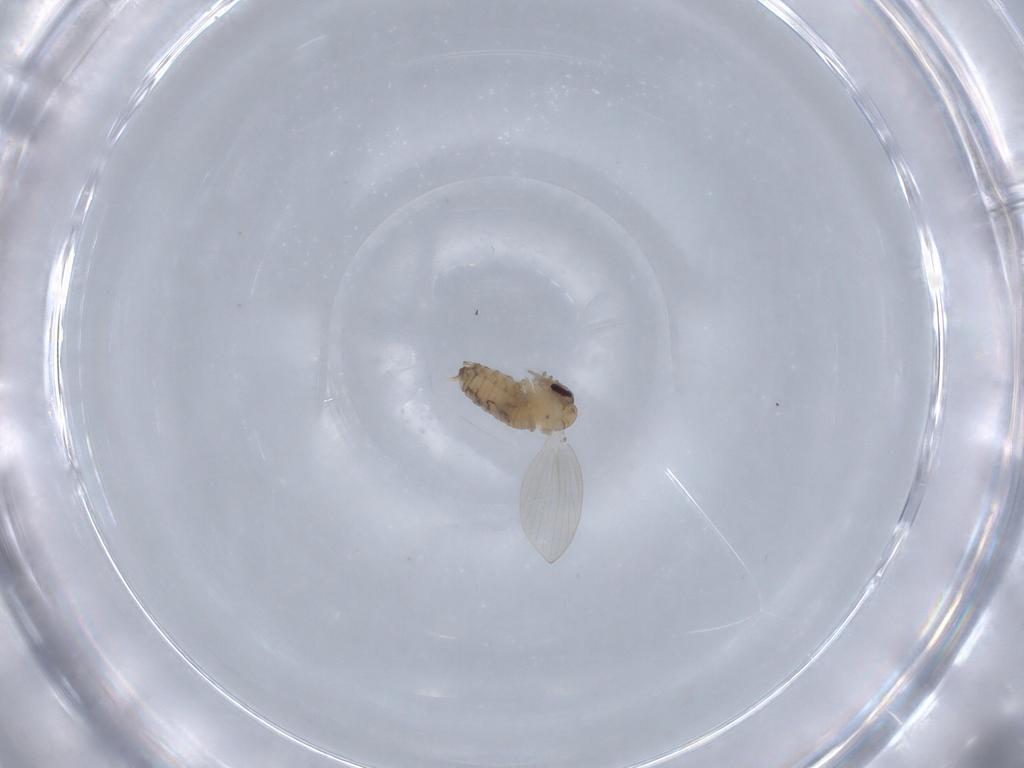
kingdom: Animalia
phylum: Arthropoda
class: Insecta
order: Diptera
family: Psychodidae
